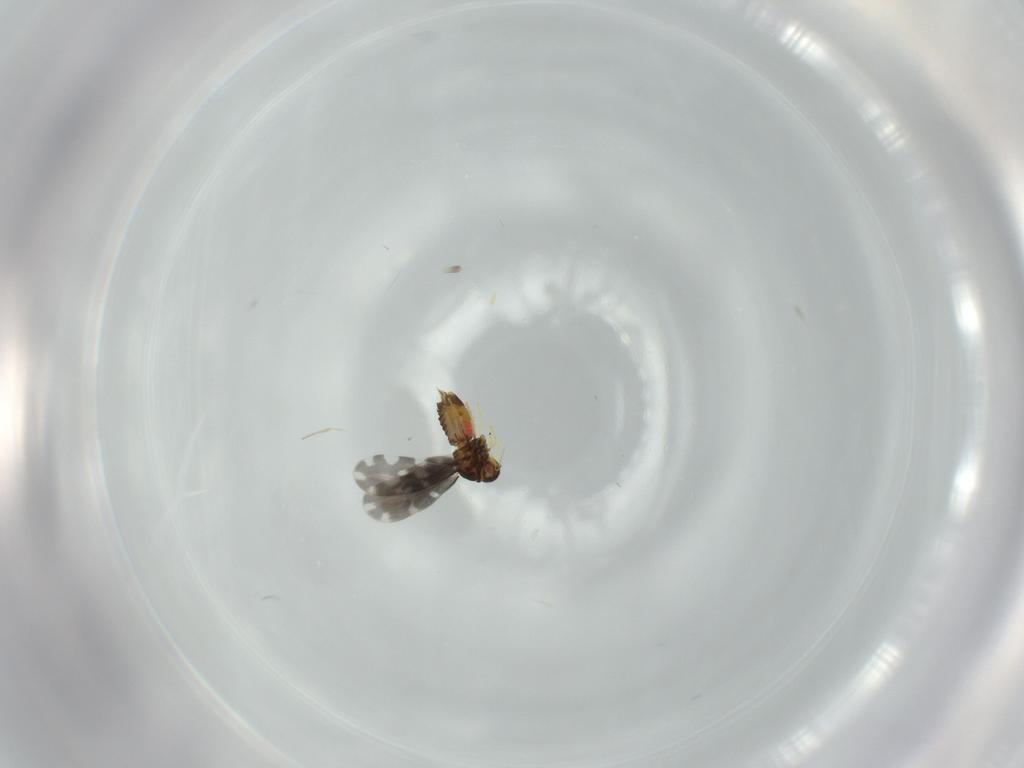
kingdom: Animalia
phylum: Arthropoda
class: Insecta
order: Hemiptera
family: Aleyrodidae
